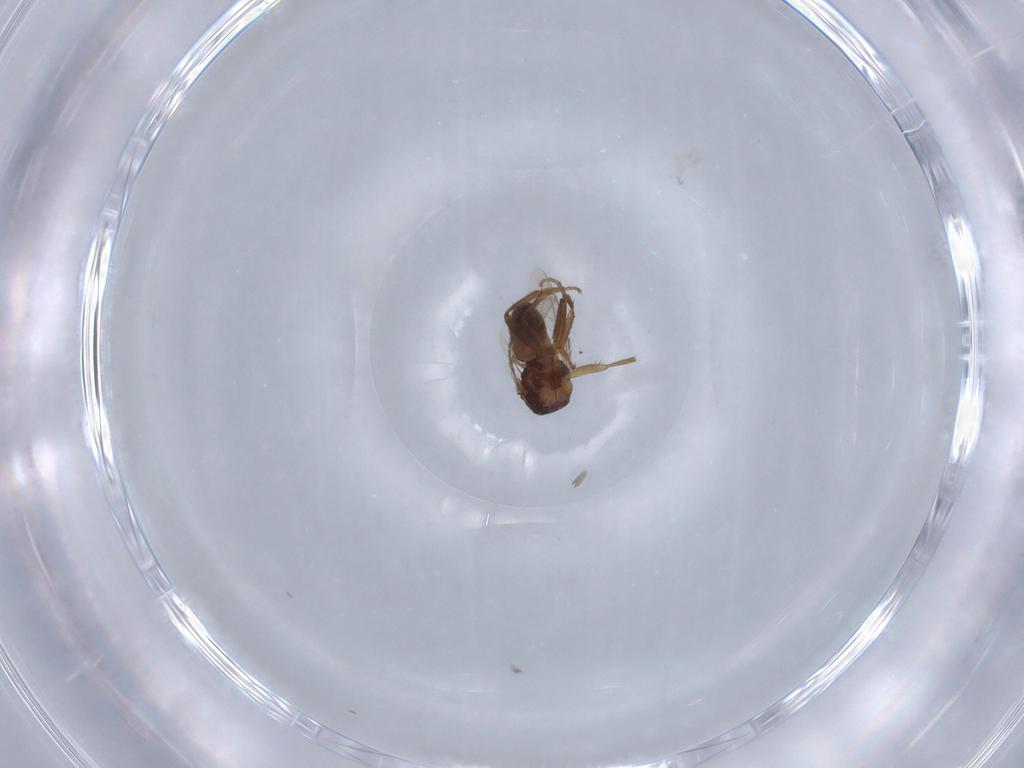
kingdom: Animalia
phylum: Arthropoda
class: Insecta
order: Diptera
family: Sphaeroceridae
